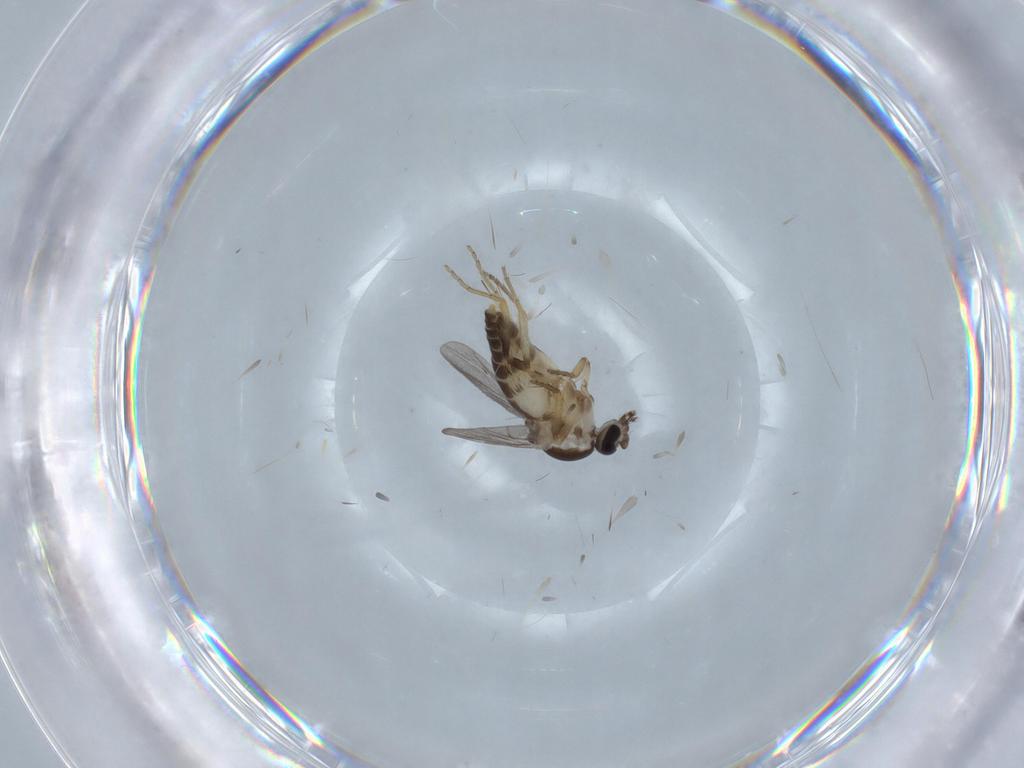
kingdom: Animalia
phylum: Arthropoda
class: Insecta
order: Diptera
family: Ceratopogonidae
